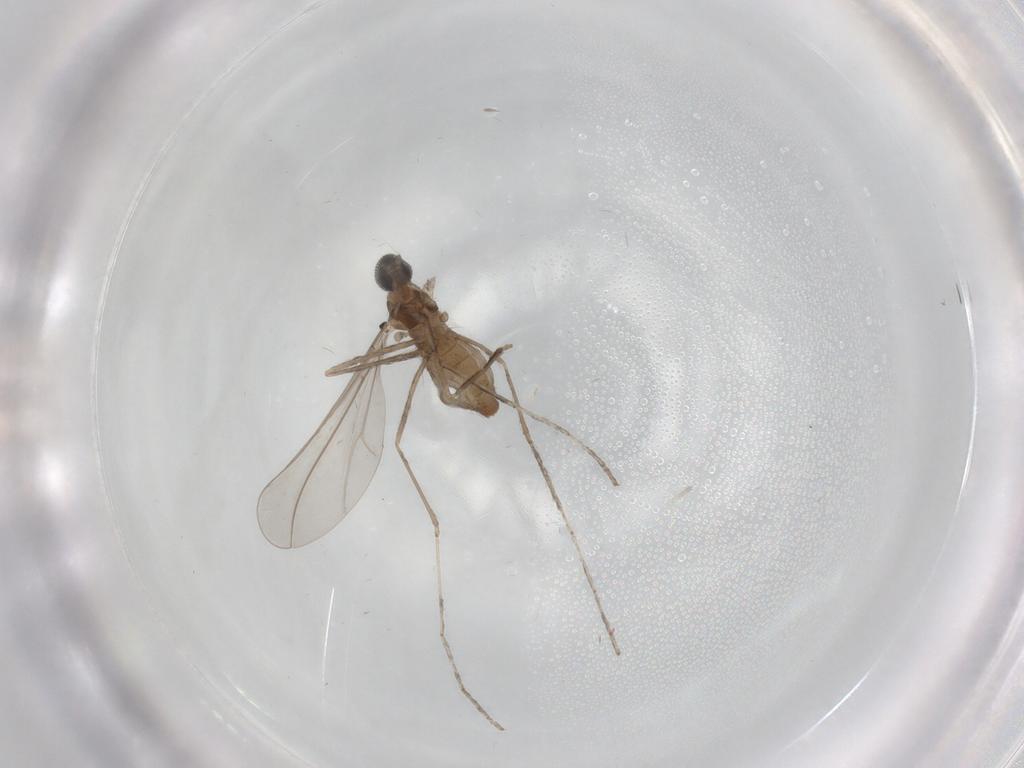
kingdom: Animalia
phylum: Arthropoda
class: Insecta
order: Diptera
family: Cecidomyiidae
